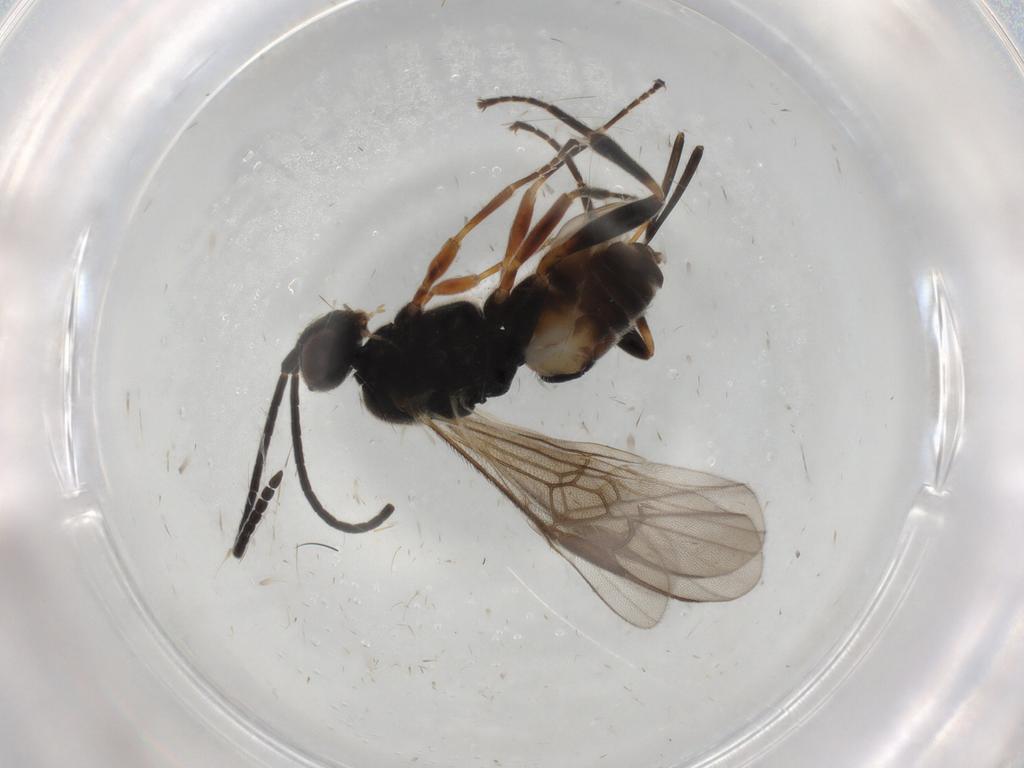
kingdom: Animalia
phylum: Arthropoda
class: Insecta
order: Hymenoptera
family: Braconidae
